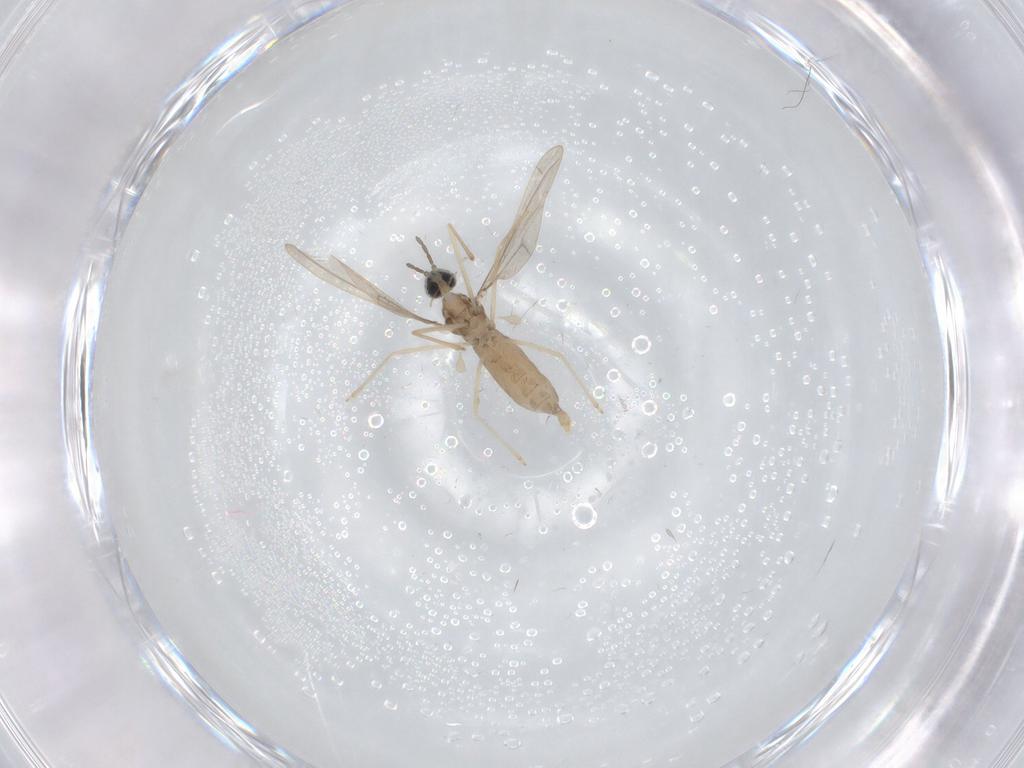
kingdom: Animalia
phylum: Arthropoda
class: Insecta
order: Diptera
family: Cecidomyiidae
